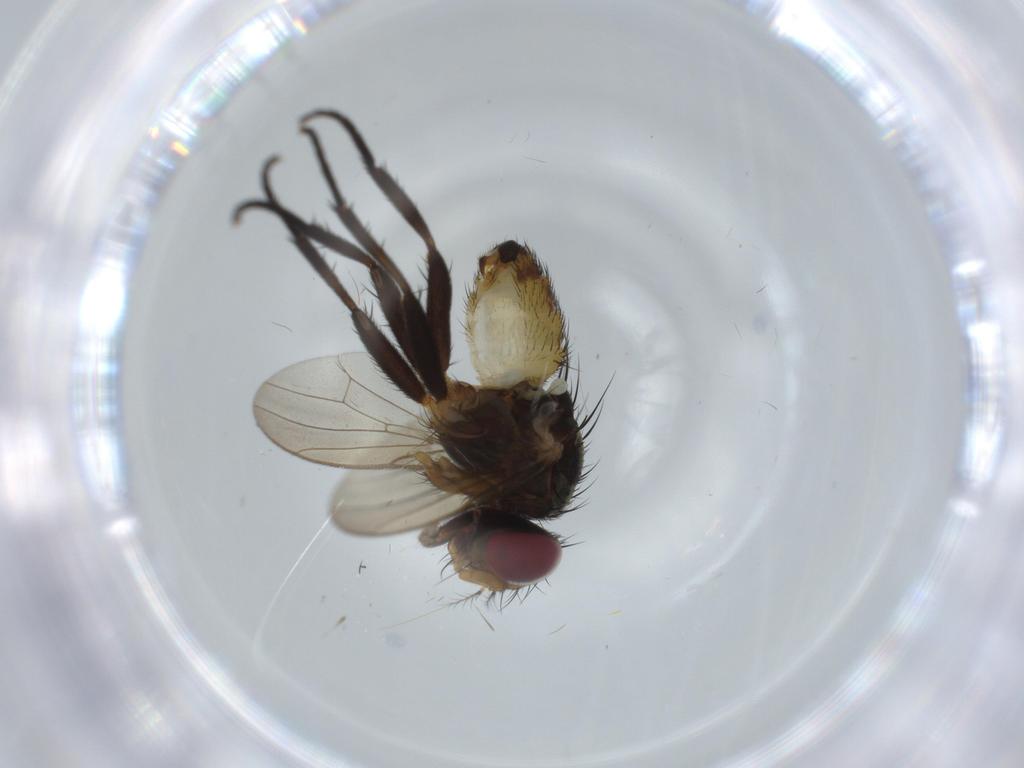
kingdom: Animalia
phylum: Arthropoda
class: Insecta
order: Diptera
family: Anthomyiidae
